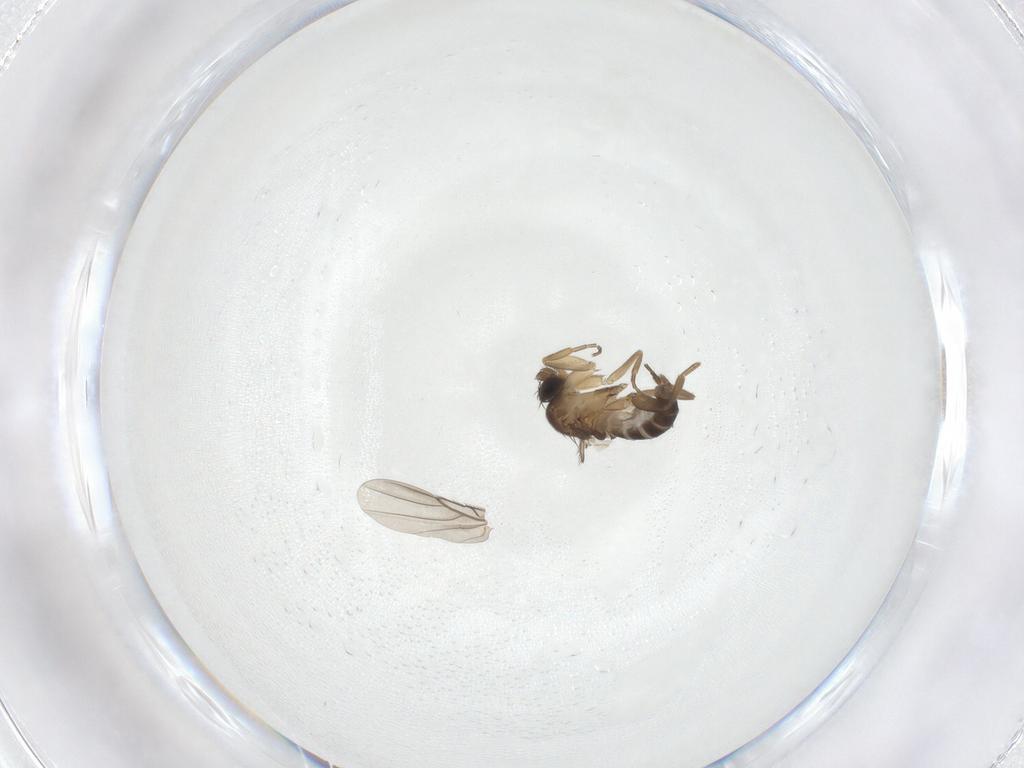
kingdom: Animalia
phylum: Arthropoda
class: Insecta
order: Diptera
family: Phoridae
